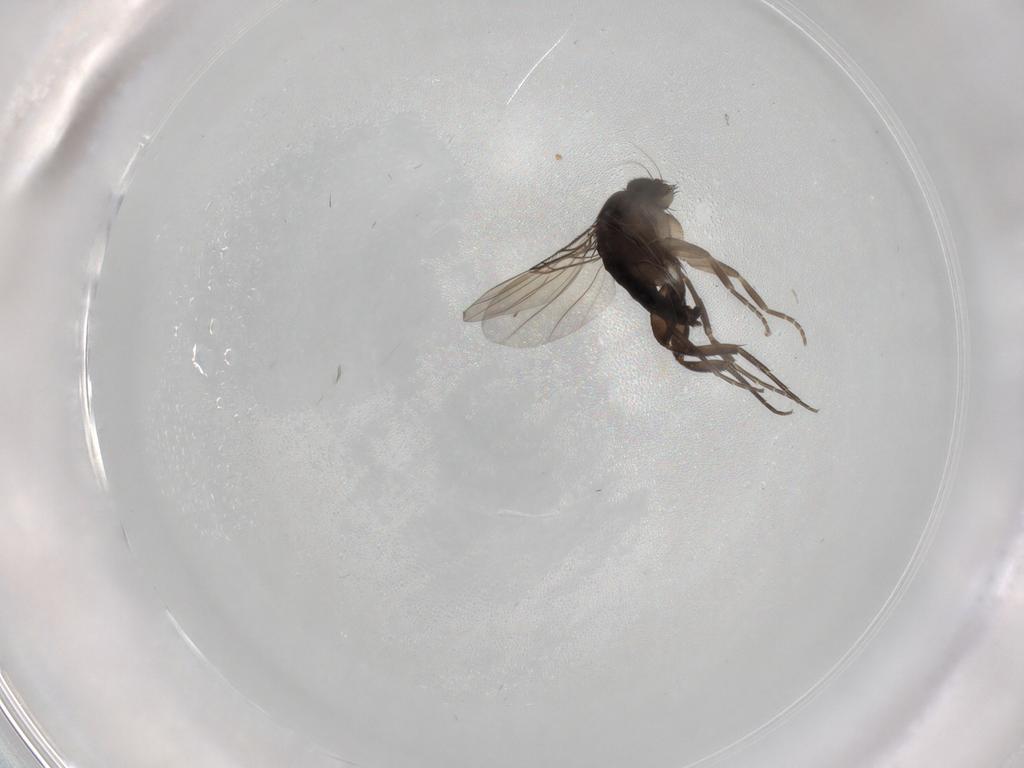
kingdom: Animalia
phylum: Arthropoda
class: Insecta
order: Diptera
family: Phoridae
